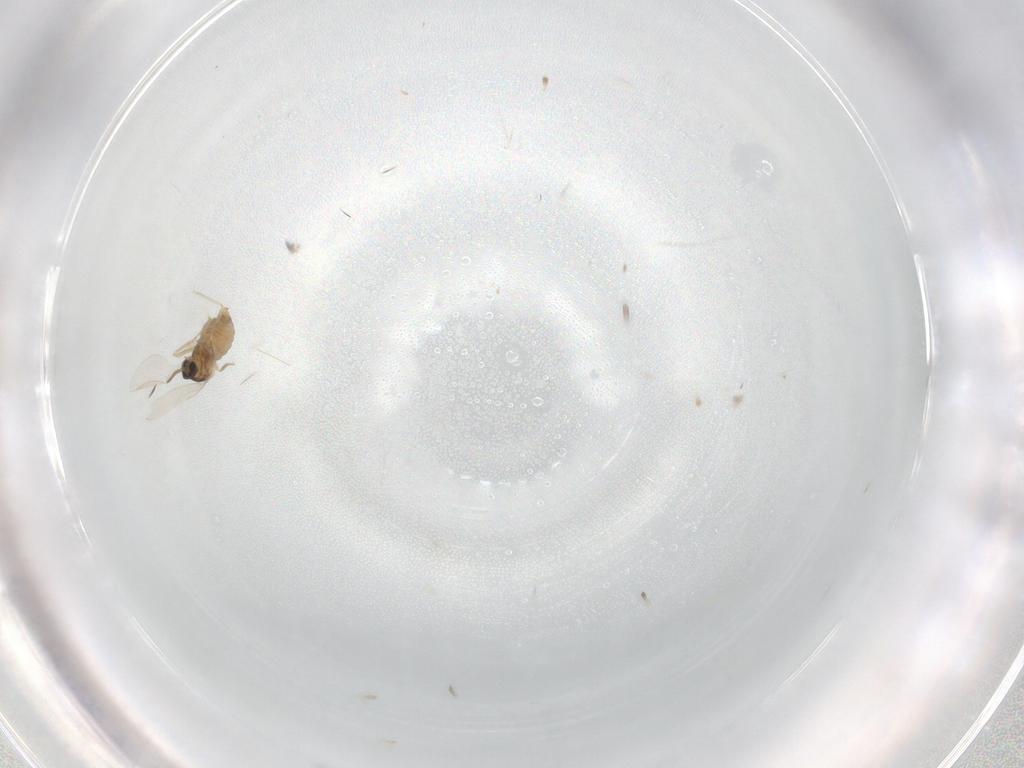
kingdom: Animalia
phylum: Arthropoda
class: Insecta
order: Diptera
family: Cecidomyiidae
